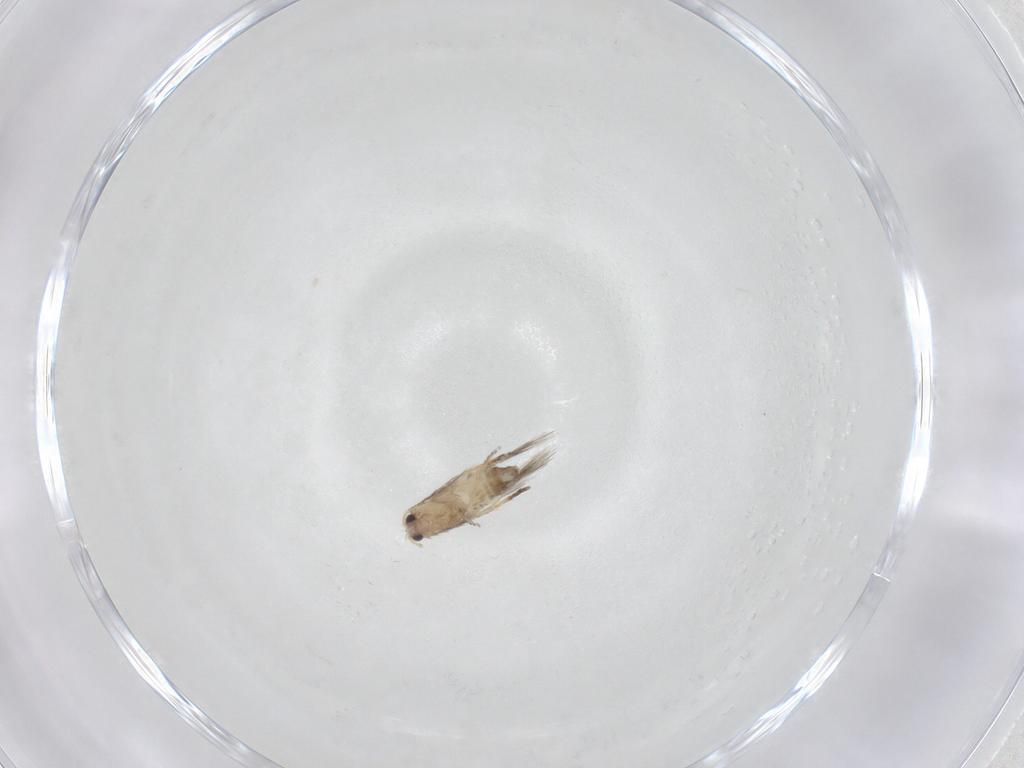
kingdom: Animalia
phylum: Arthropoda
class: Insecta
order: Lepidoptera
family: Nepticulidae
